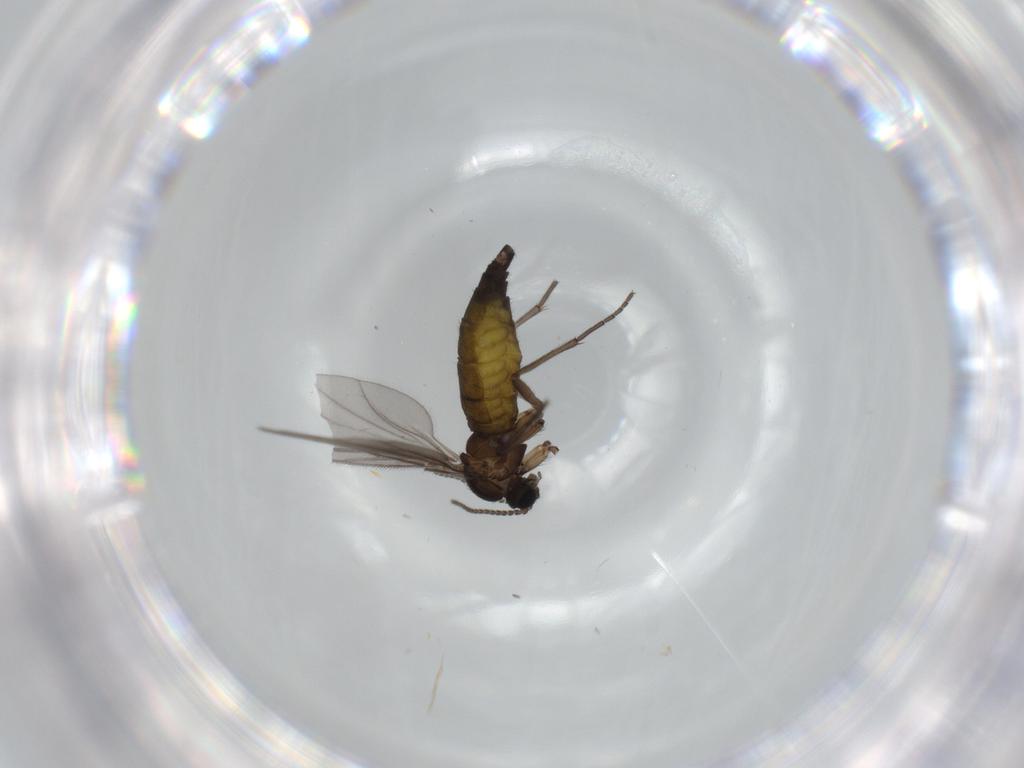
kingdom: Animalia
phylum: Arthropoda
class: Insecta
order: Diptera
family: Sciaridae
